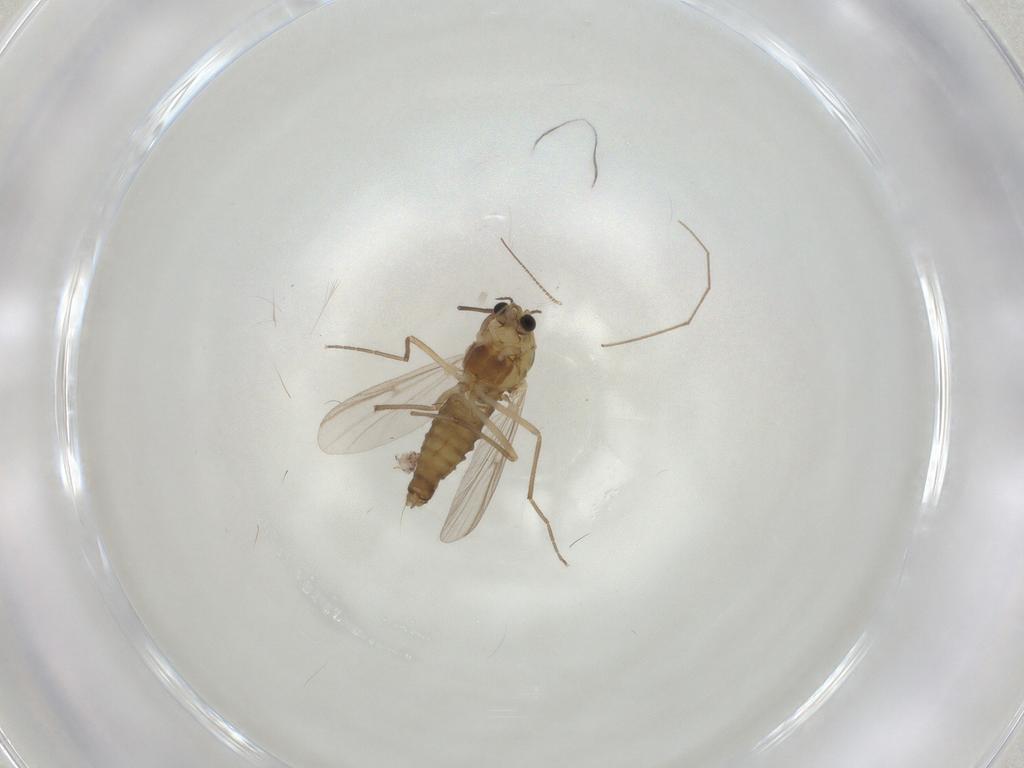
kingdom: Animalia
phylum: Arthropoda
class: Insecta
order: Diptera
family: Chironomidae
